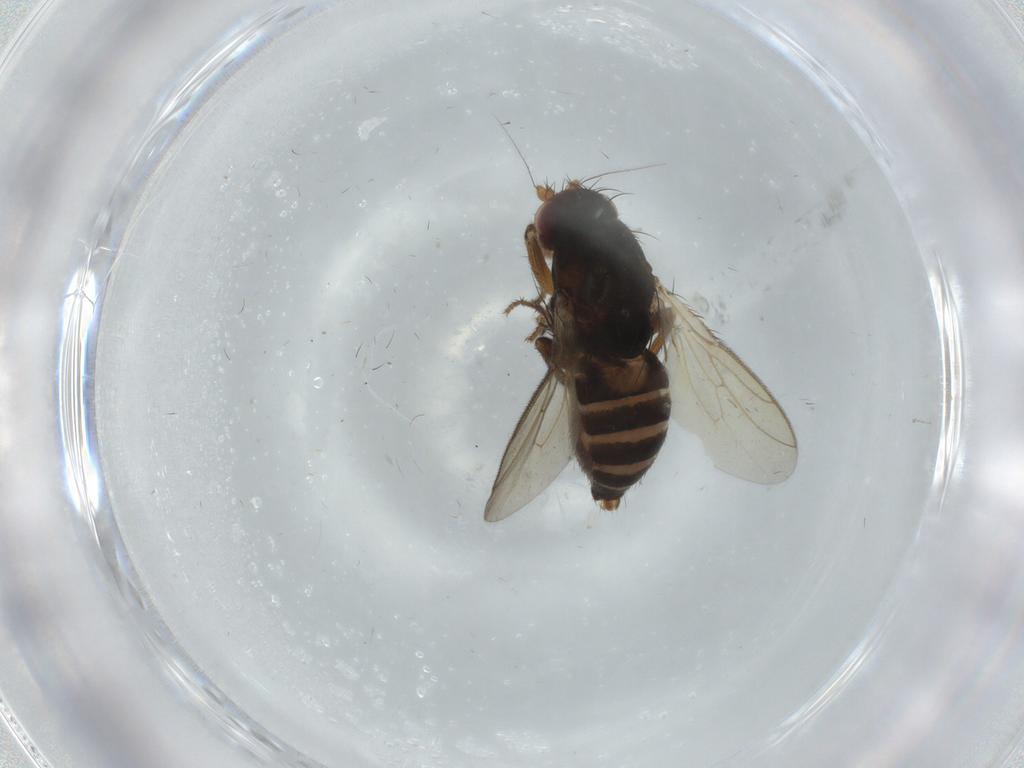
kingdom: Animalia
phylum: Arthropoda
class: Insecta
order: Diptera
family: Sphaeroceridae
